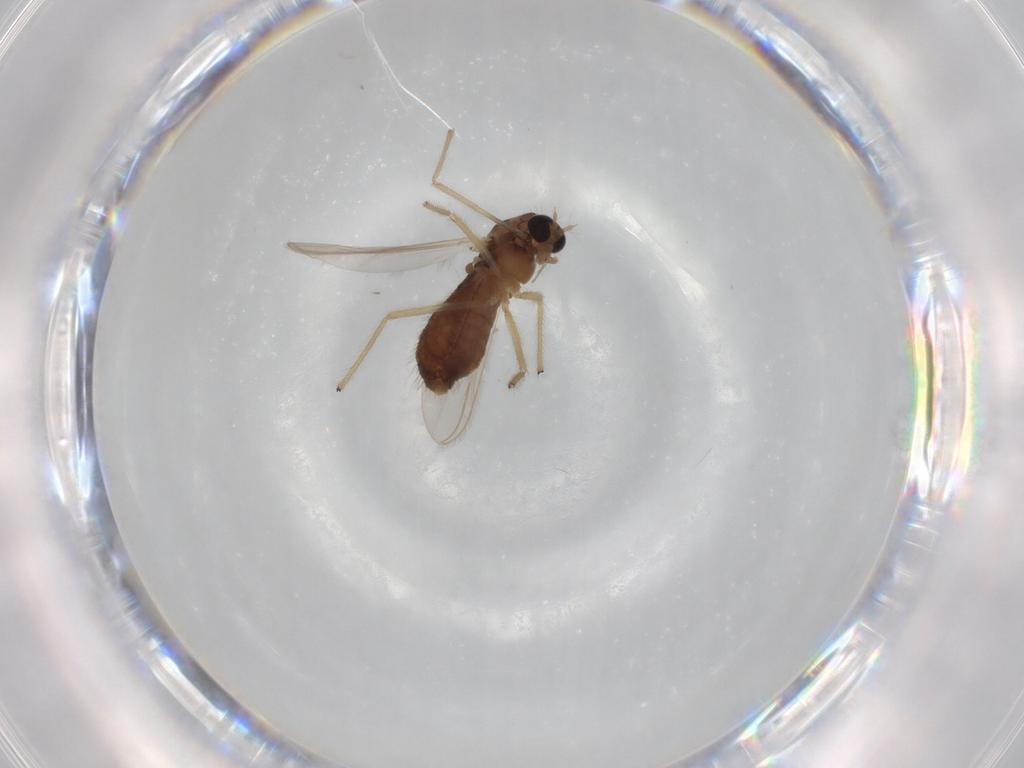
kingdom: Animalia
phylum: Arthropoda
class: Insecta
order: Diptera
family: Chironomidae
